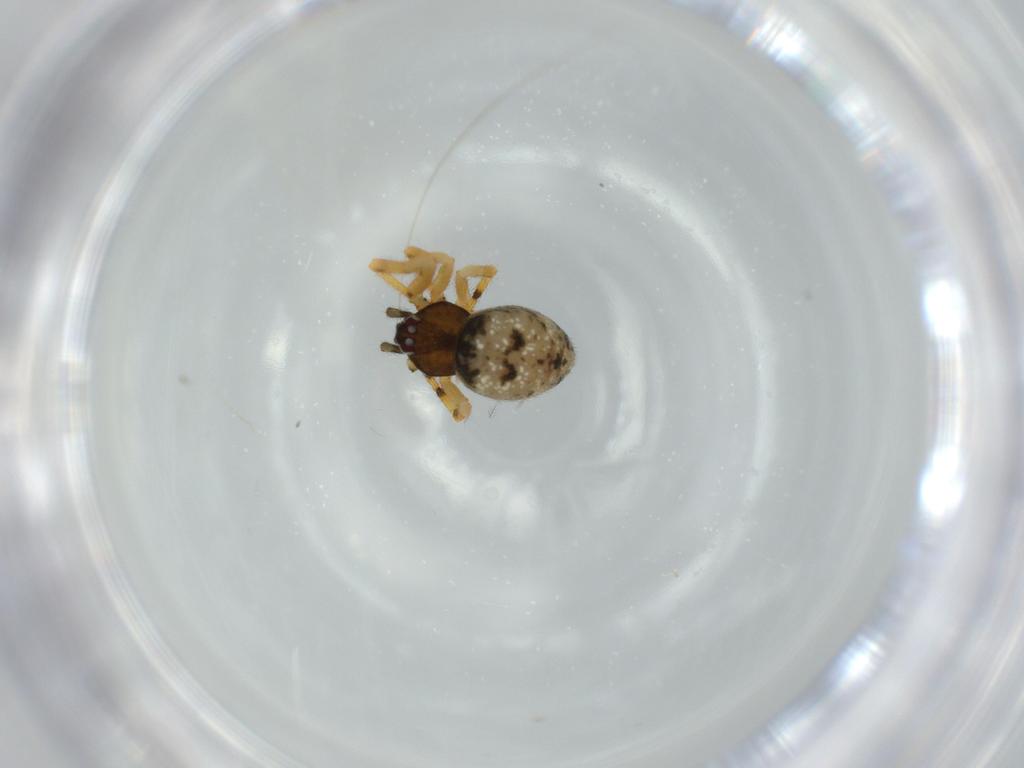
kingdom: Animalia
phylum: Arthropoda
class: Arachnida
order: Araneae
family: Theridiidae
